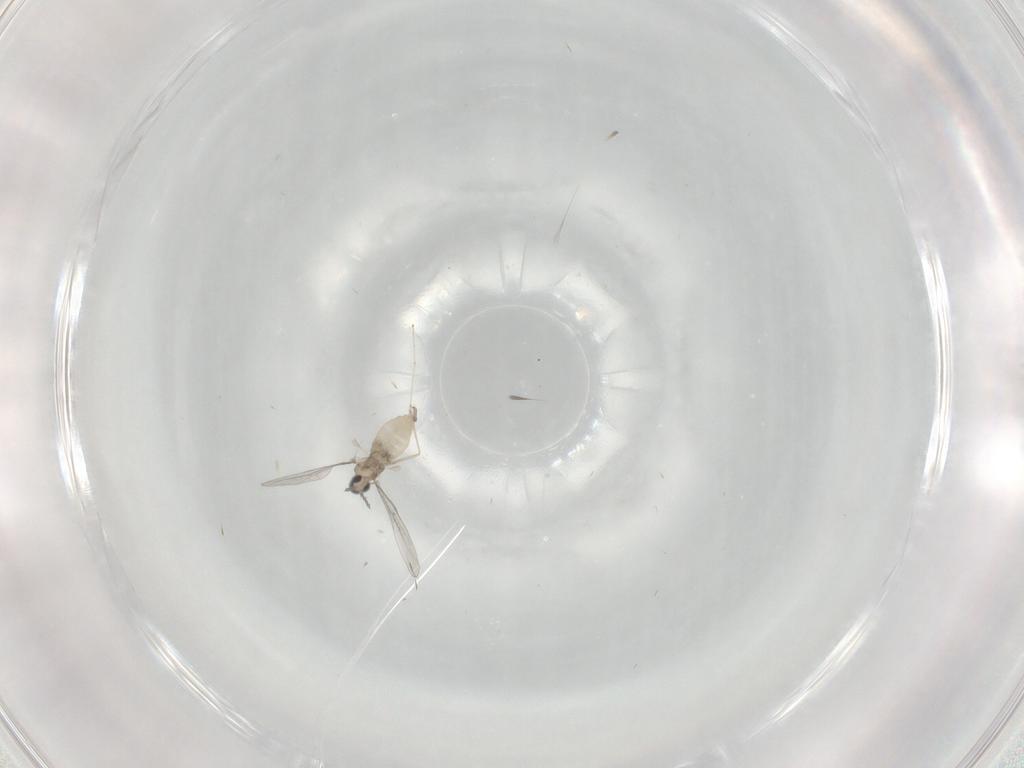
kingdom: Animalia
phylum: Arthropoda
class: Insecta
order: Diptera
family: Cecidomyiidae
